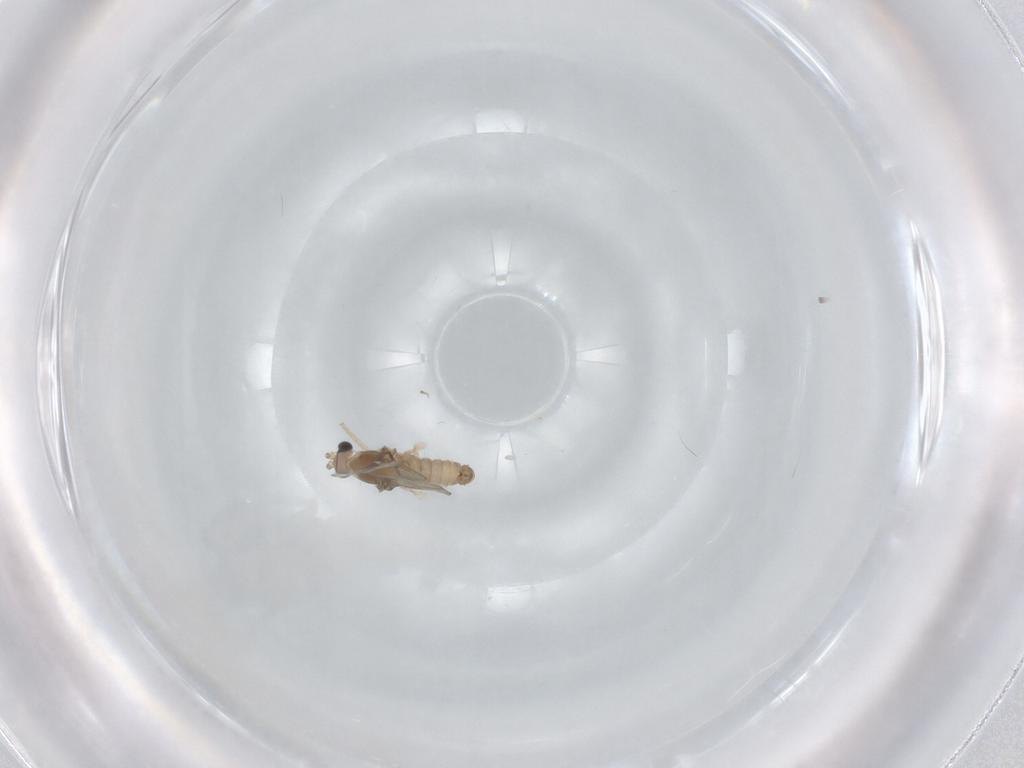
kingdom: Animalia
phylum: Arthropoda
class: Insecta
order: Diptera
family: Cecidomyiidae
